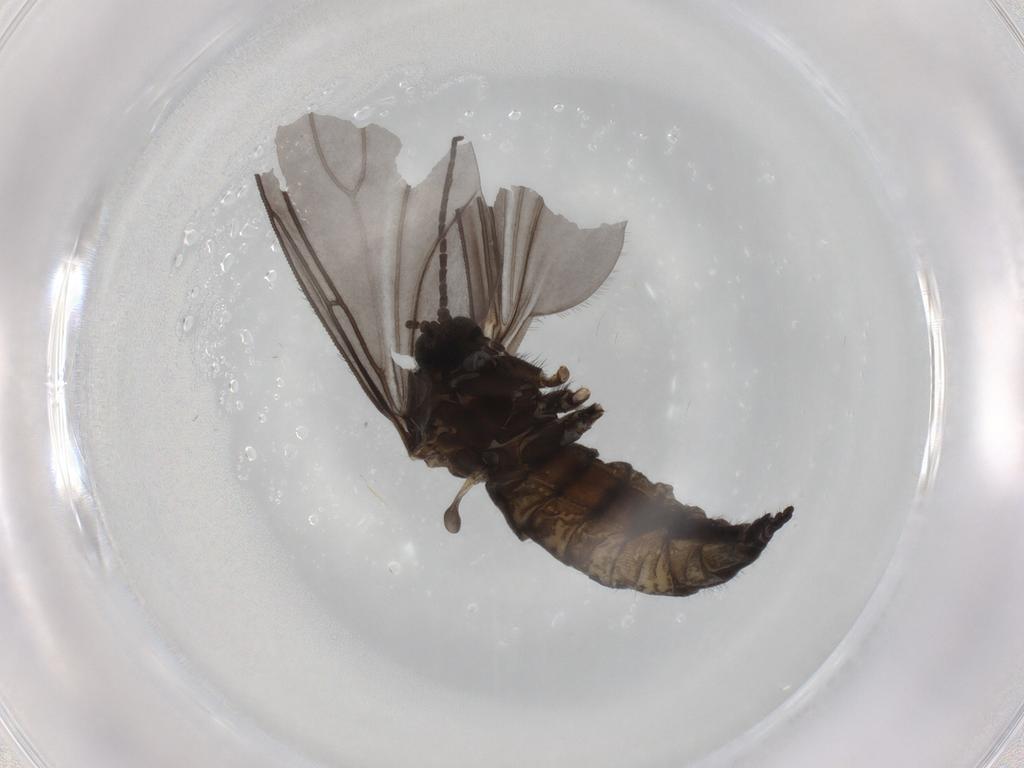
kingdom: Animalia
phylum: Arthropoda
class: Insecta
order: Diptera
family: Sciaridae
